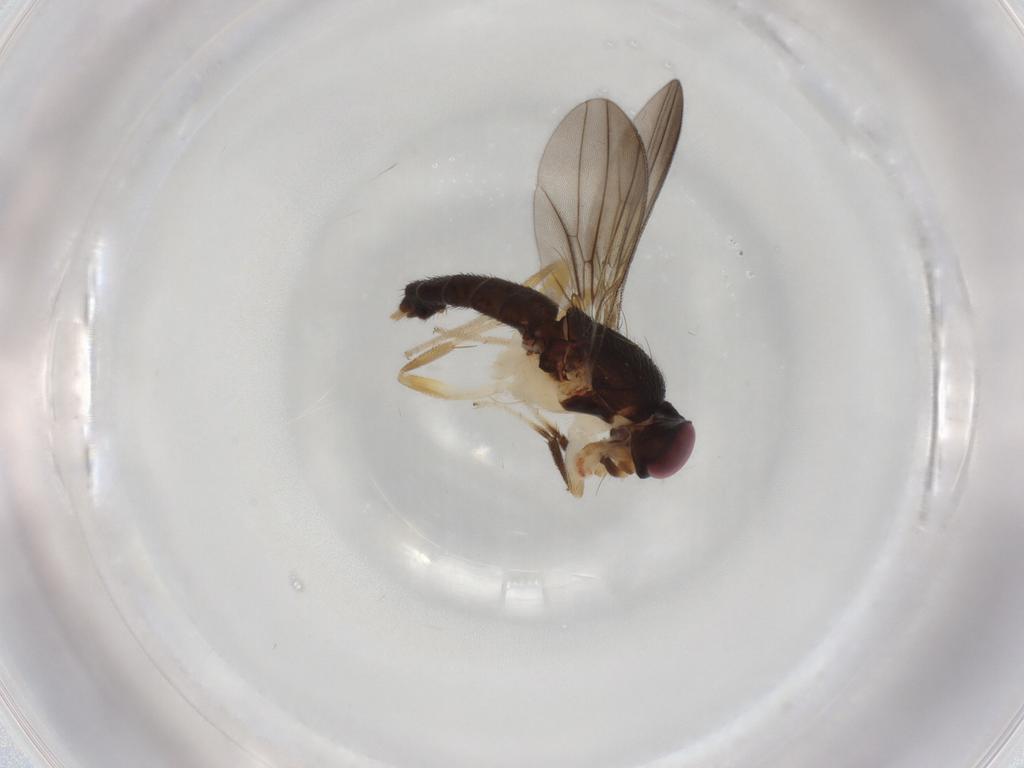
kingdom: Animalia
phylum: Arthropoda
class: Insecta
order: Diptera
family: Clusiidae
